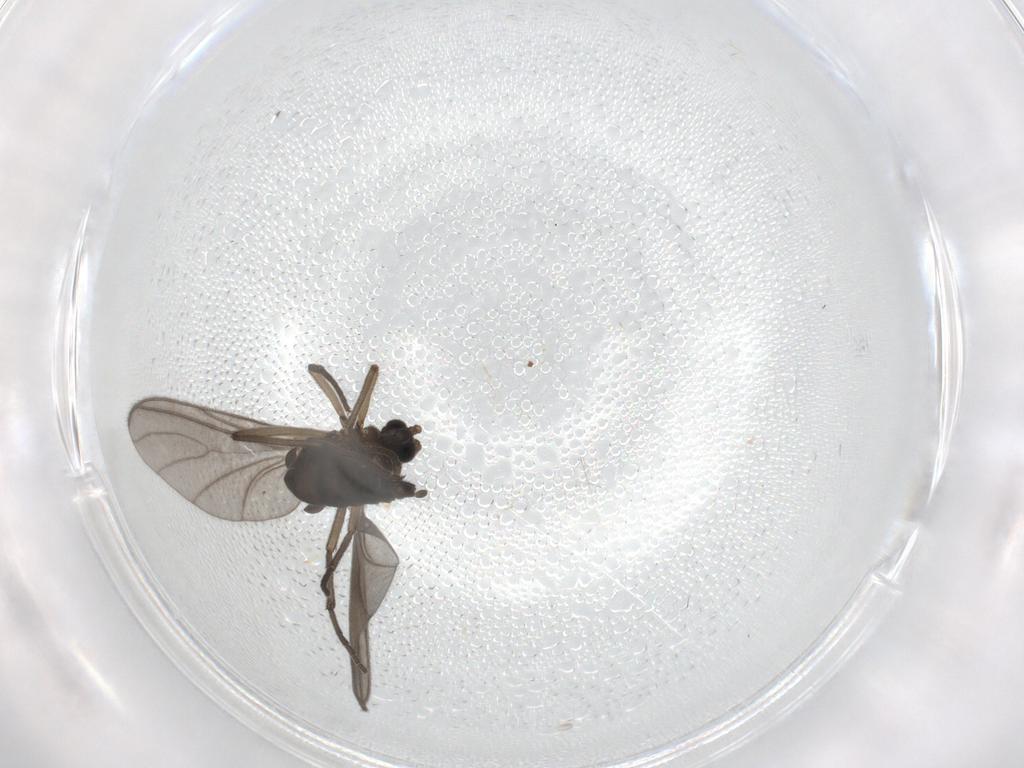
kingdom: Animalia
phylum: Arthropoda
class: Insecta
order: Diptera
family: Sciaridae
